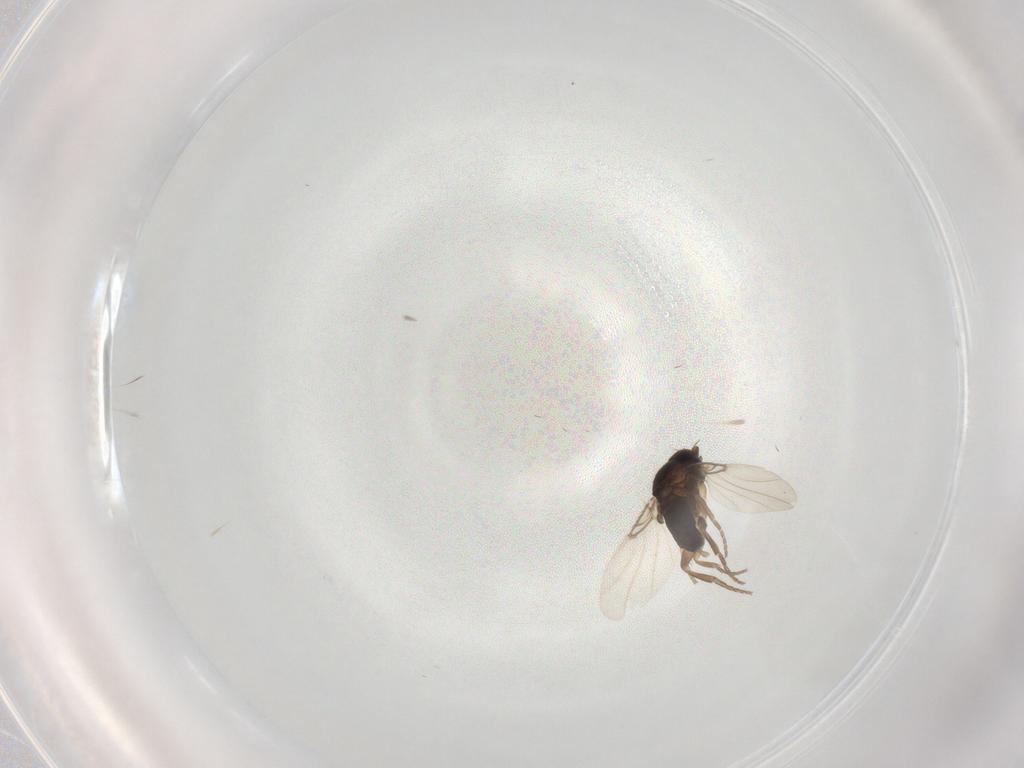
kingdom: Animalia
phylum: Arthropoda
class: Insecta
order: Diptera
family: Phoridae
